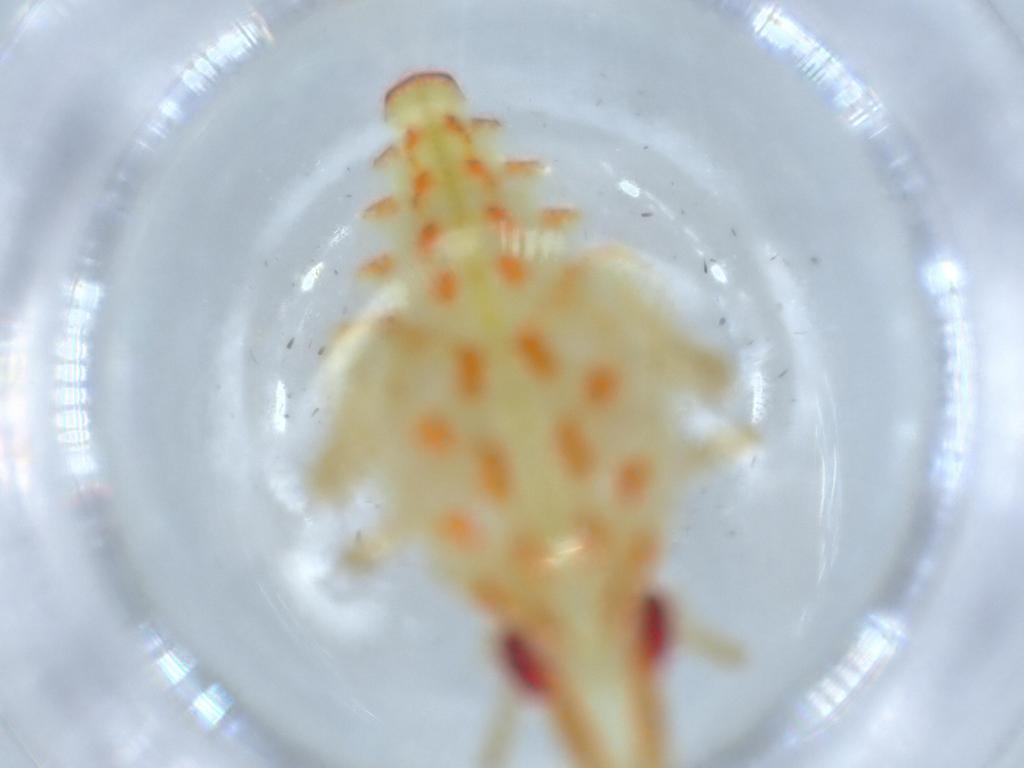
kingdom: Animalia
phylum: Arthropoda
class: Insecta
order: Hemiptera
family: Tropiduchidae
